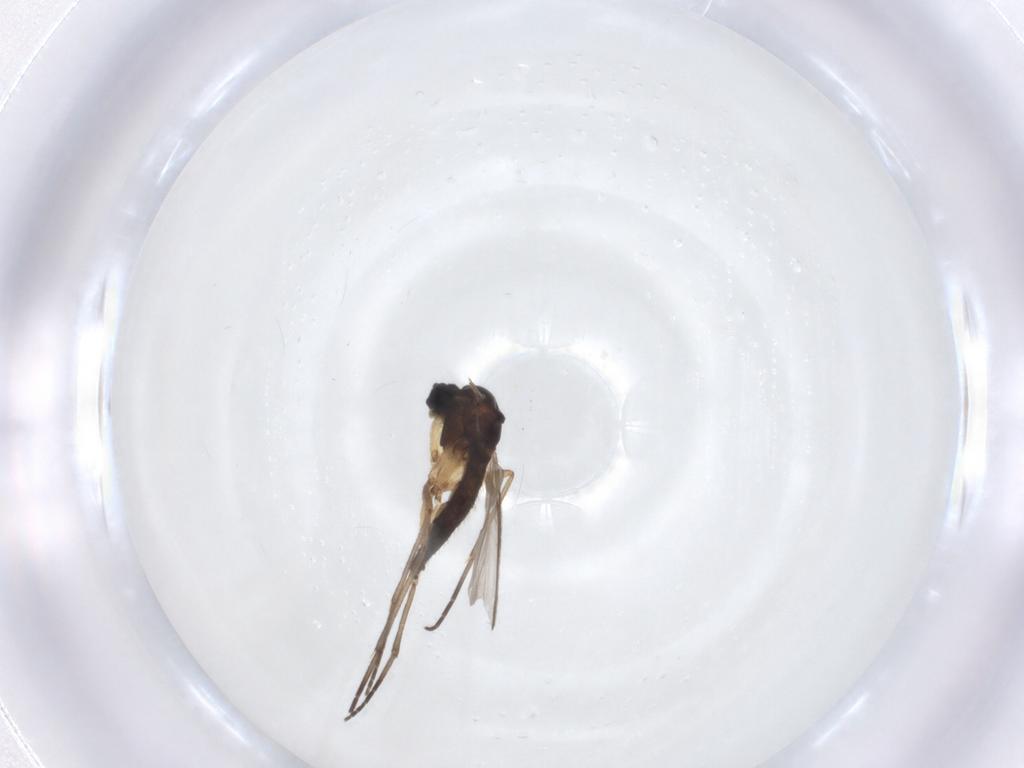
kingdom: Animalia
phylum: Arthropoda
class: Insecta
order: Diptera
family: Sciaridae
